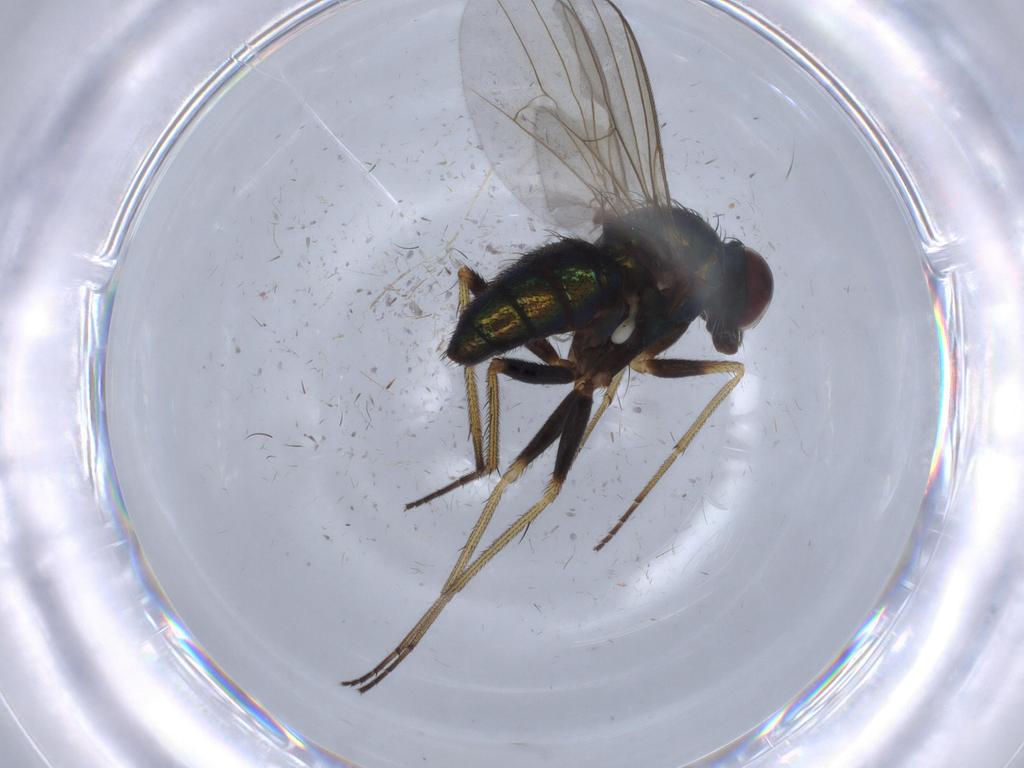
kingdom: Animalia
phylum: Arthropoda
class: Insecta
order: Diptera
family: Dolichopodidae
